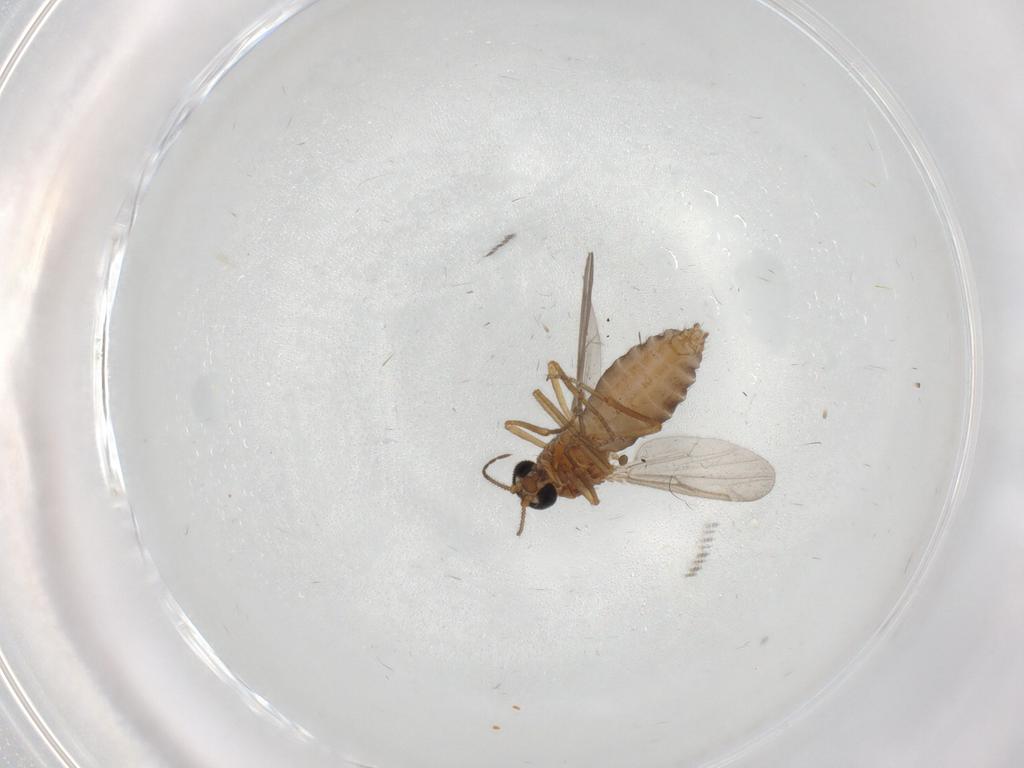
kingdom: Animalia
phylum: Arthropoda
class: Insecta
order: Diptera
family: Ceratopogonidae
